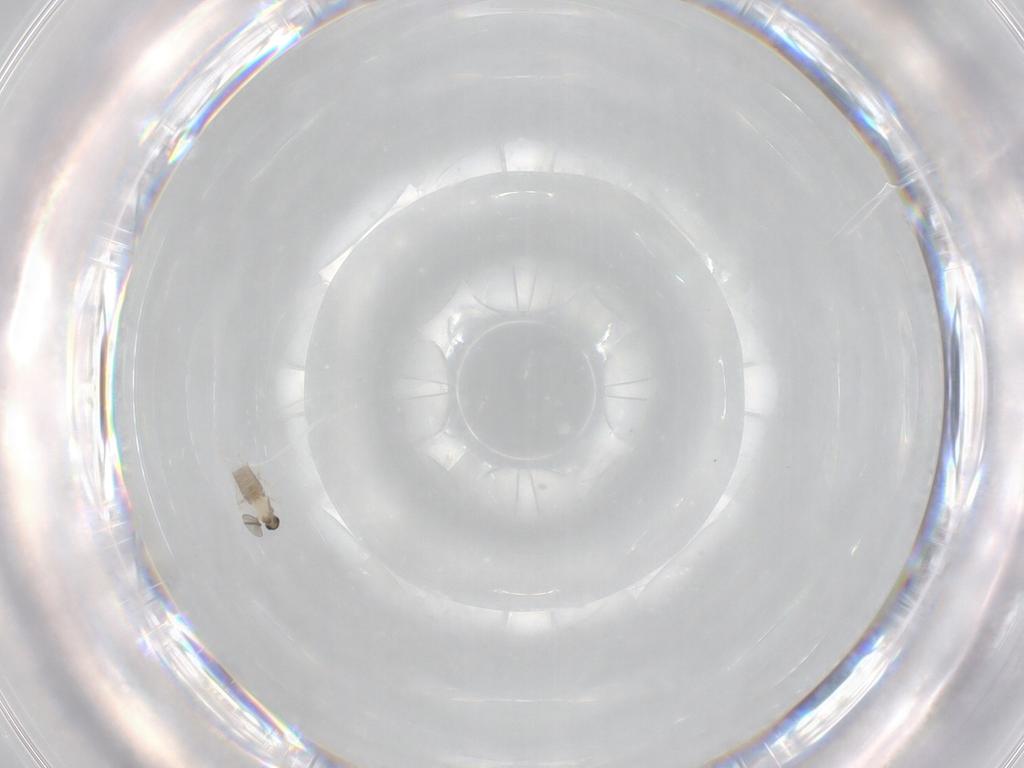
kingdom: Animalia
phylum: Arthropoda
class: Insecta
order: Diptera
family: Cecidomyiidae
